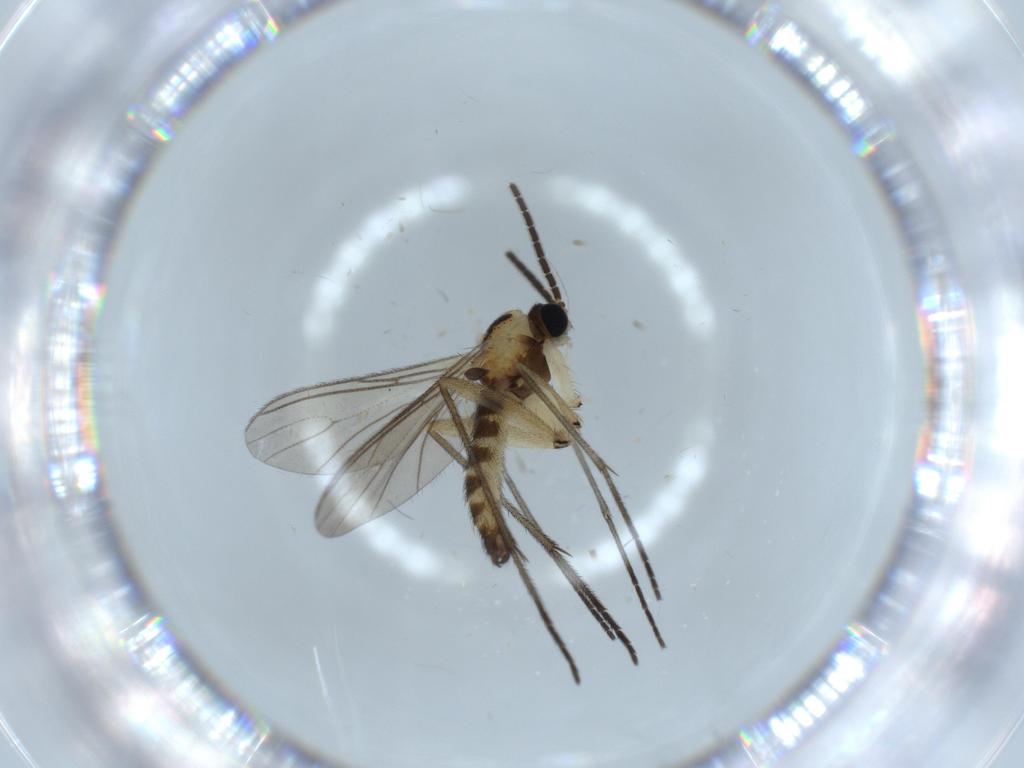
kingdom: Animalia
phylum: Arthropoda
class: Insecta
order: Diptera
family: Sciaridae
